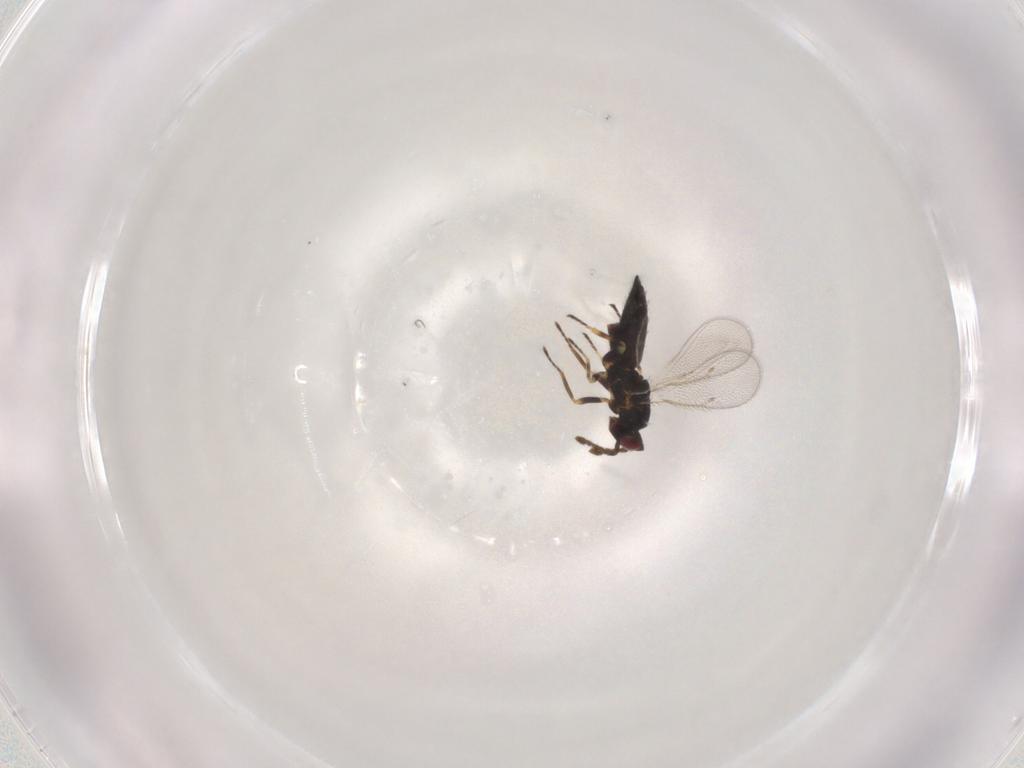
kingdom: Animalia
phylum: Arthropoda
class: Insecta
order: Hymenoptera
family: Eulophidae
